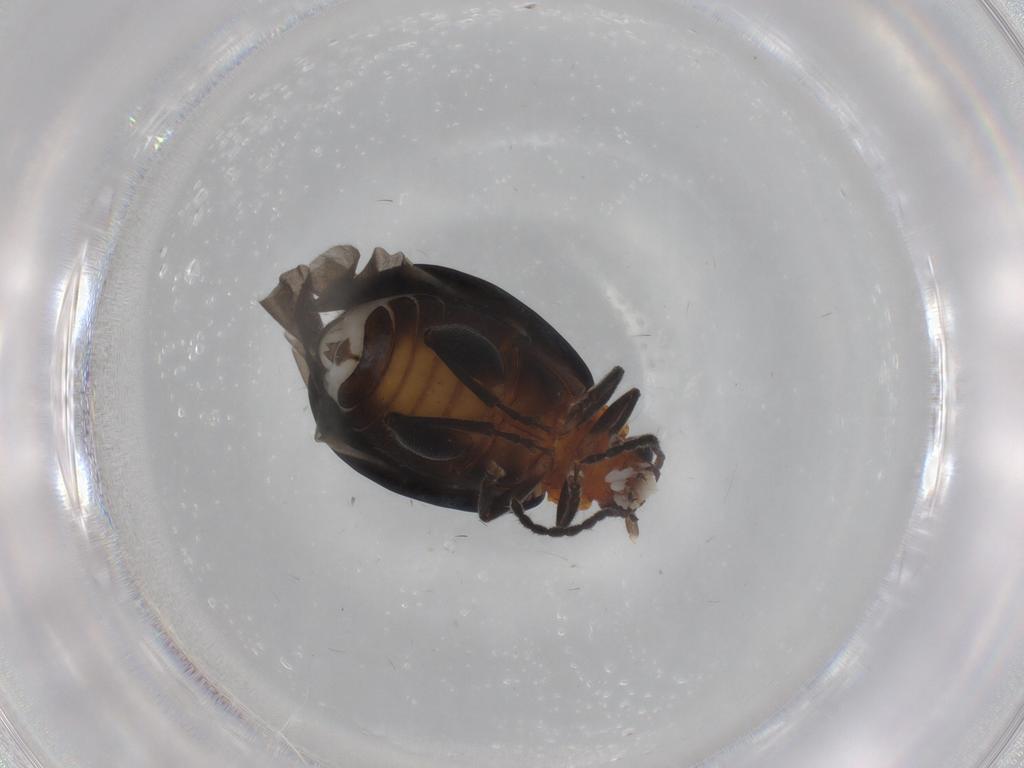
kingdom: Animalia
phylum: Arthropoda
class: Insecta
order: Coleoptera
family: Chrysomelidae
